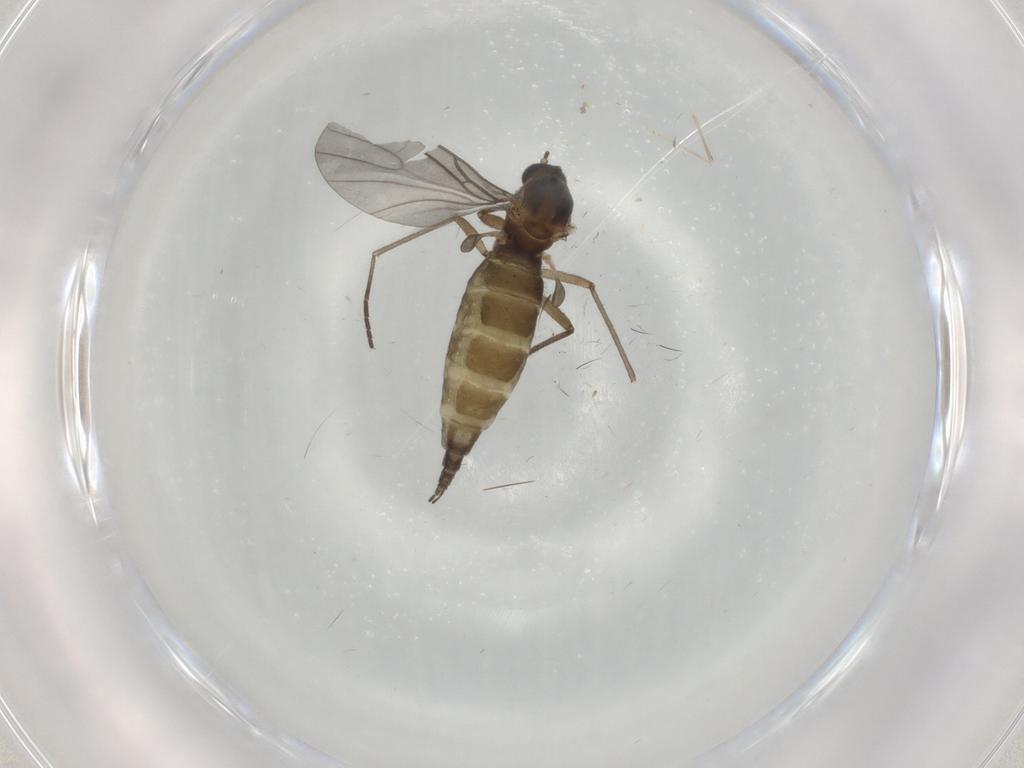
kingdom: Animalia
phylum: Arthropoda
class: Insecta
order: Diptera
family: Ceratopogonidae
